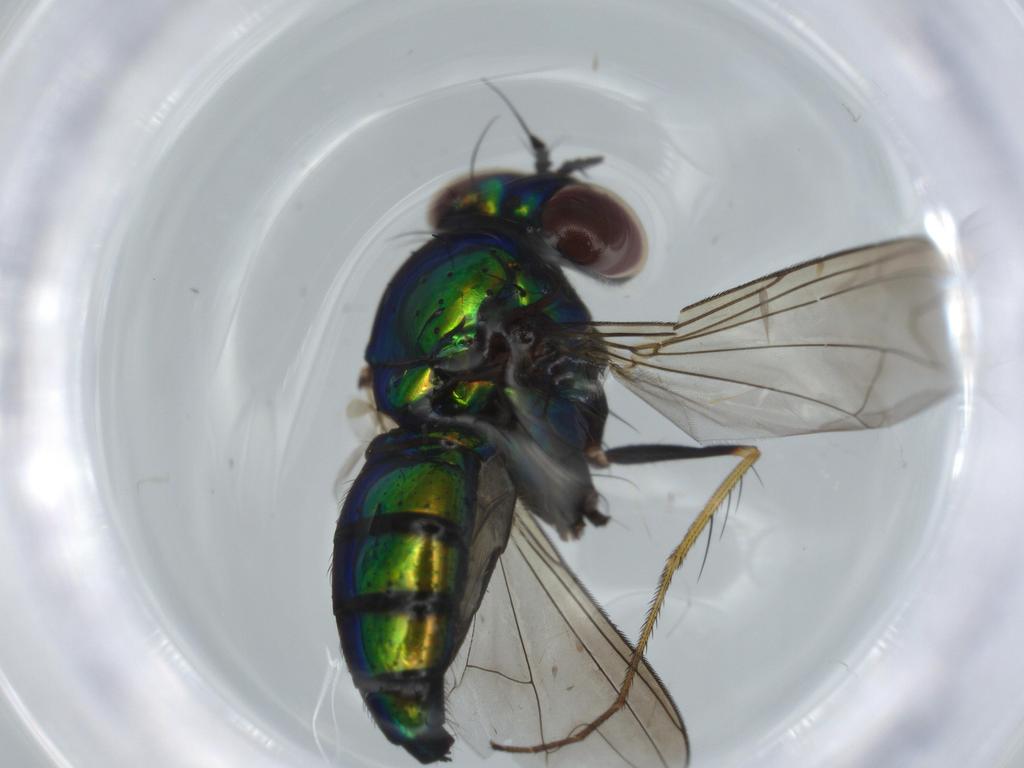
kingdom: Animalia
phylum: Arthropoda
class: Insecta
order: Diptera
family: Dolichopodidae
